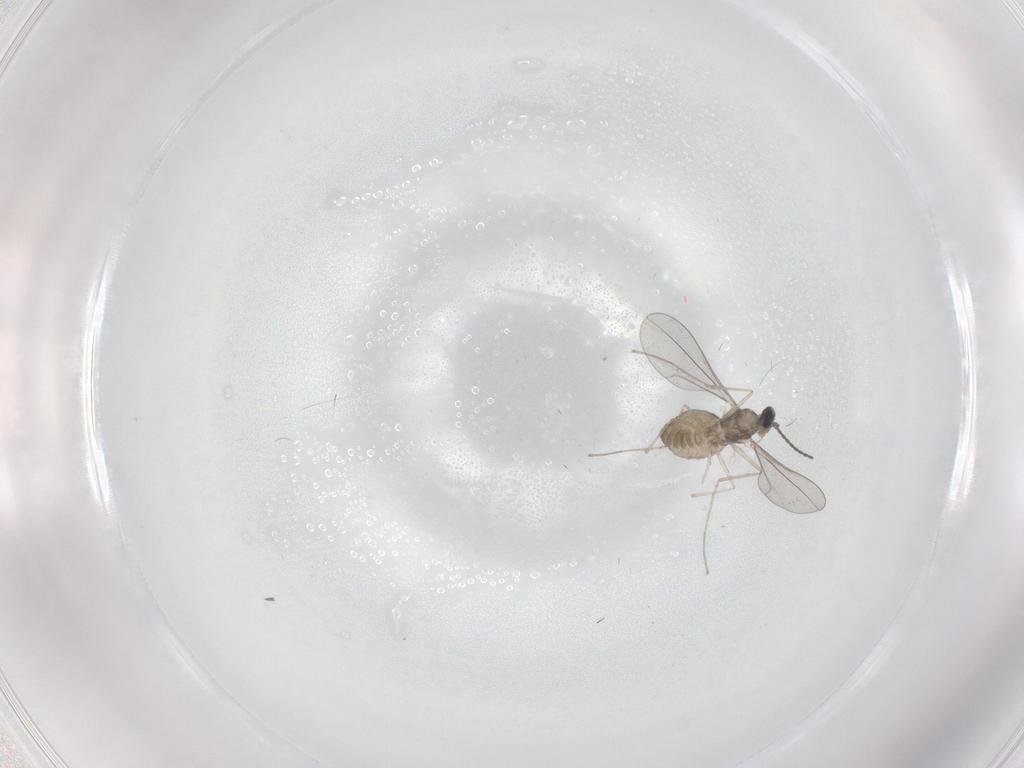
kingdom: Animalia
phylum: Arthropoda
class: Insecta
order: Diptera
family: Cecidomyiidae
